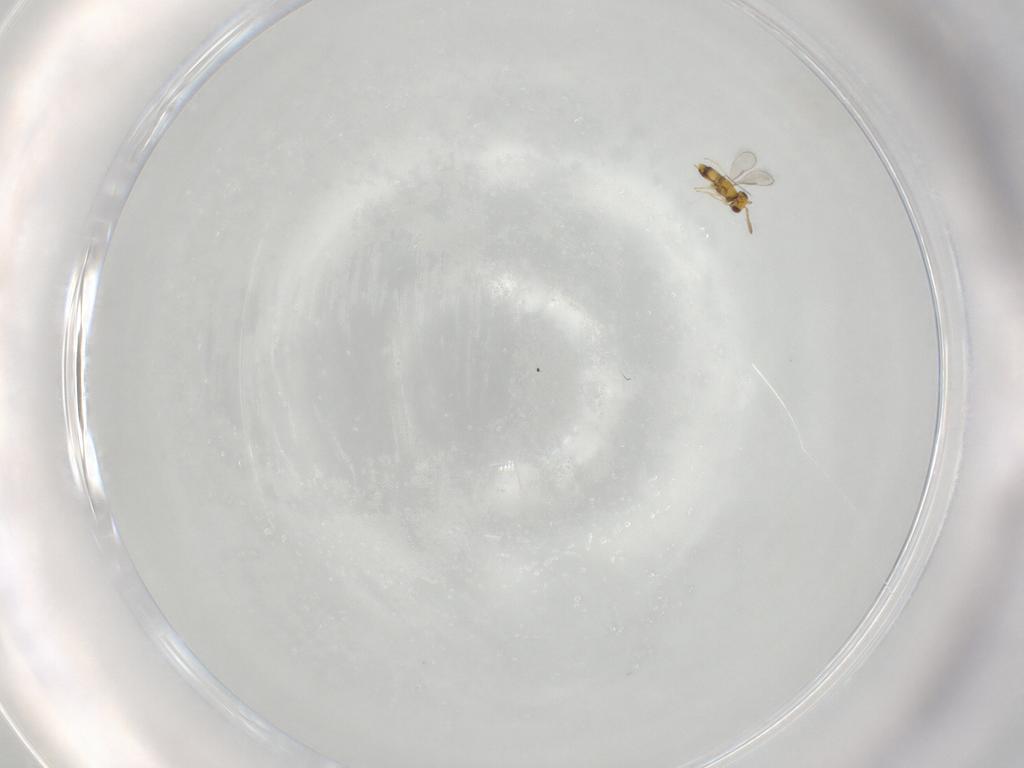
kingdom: Animalia
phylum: Arthropoda
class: Insecta
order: Hymenoptera
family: Aphelinidae
